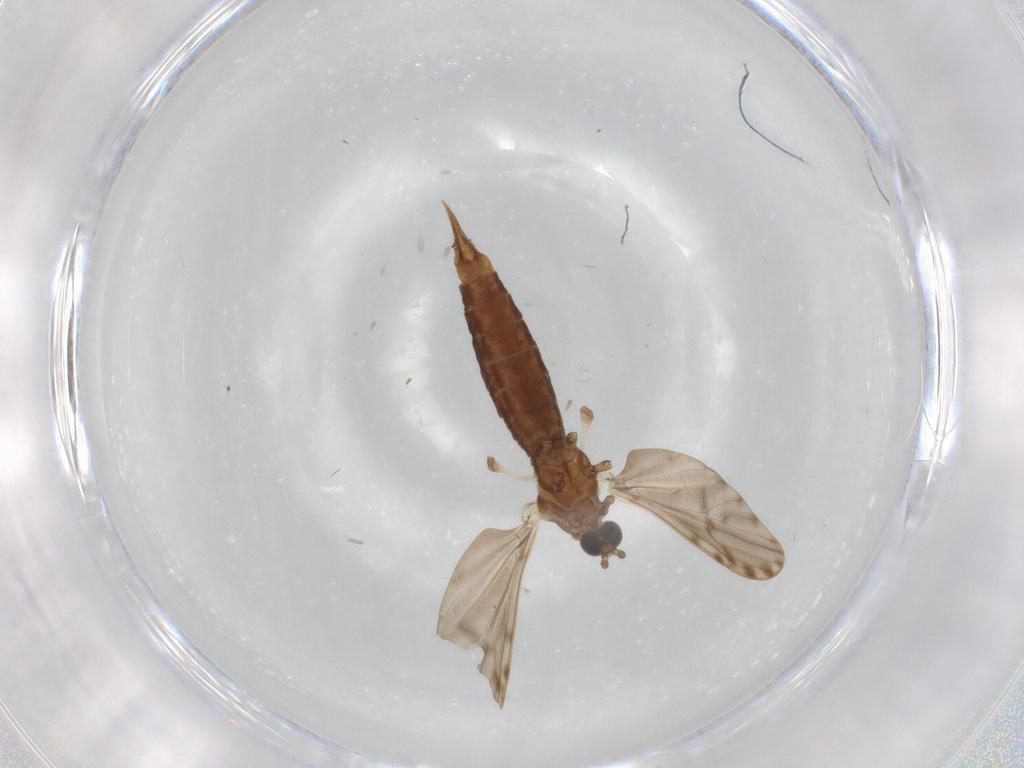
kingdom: Animalia
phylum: Arthropoda
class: Insecta
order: Diptera
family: Limoniidae
